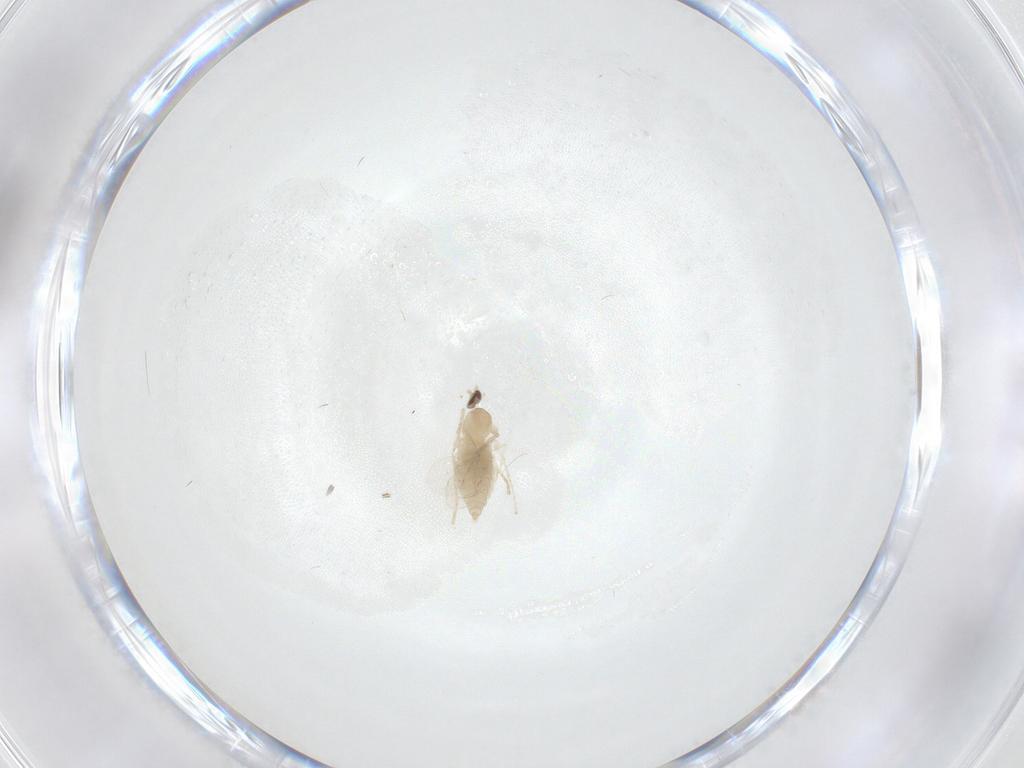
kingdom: Animalia
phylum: Arthropoda
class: Insecta
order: Diptera
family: Cecidomyiidae
